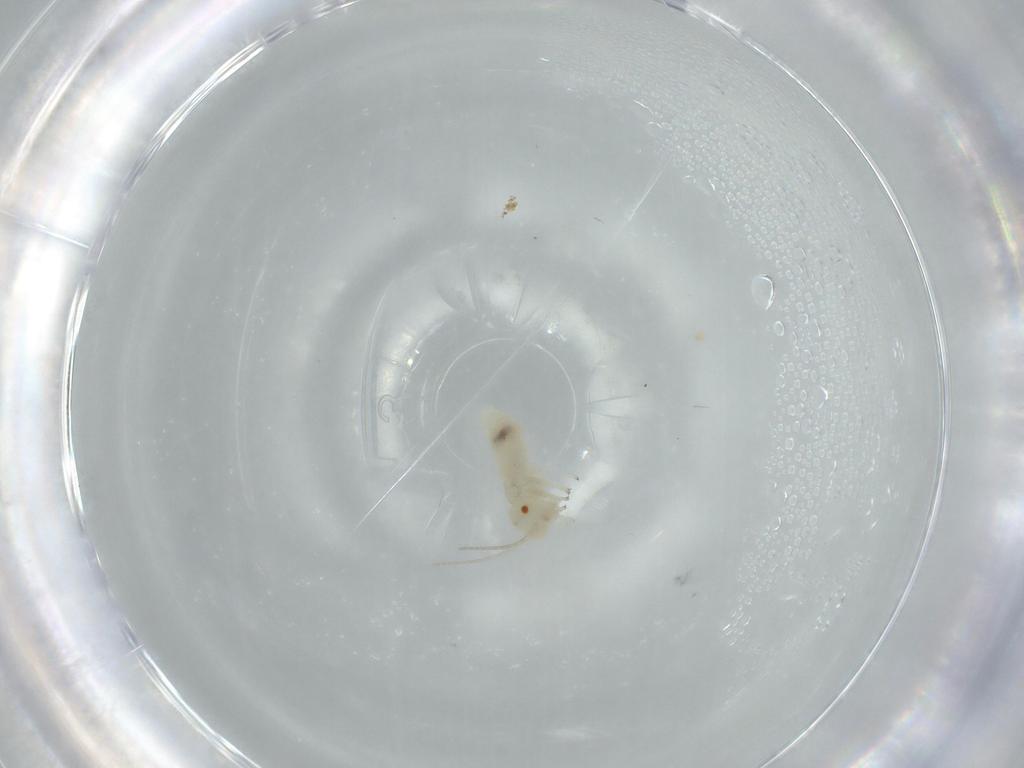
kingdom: Animalia
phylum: Arthropoda
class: Insecta
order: Psocodea
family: Caeciliusidae
